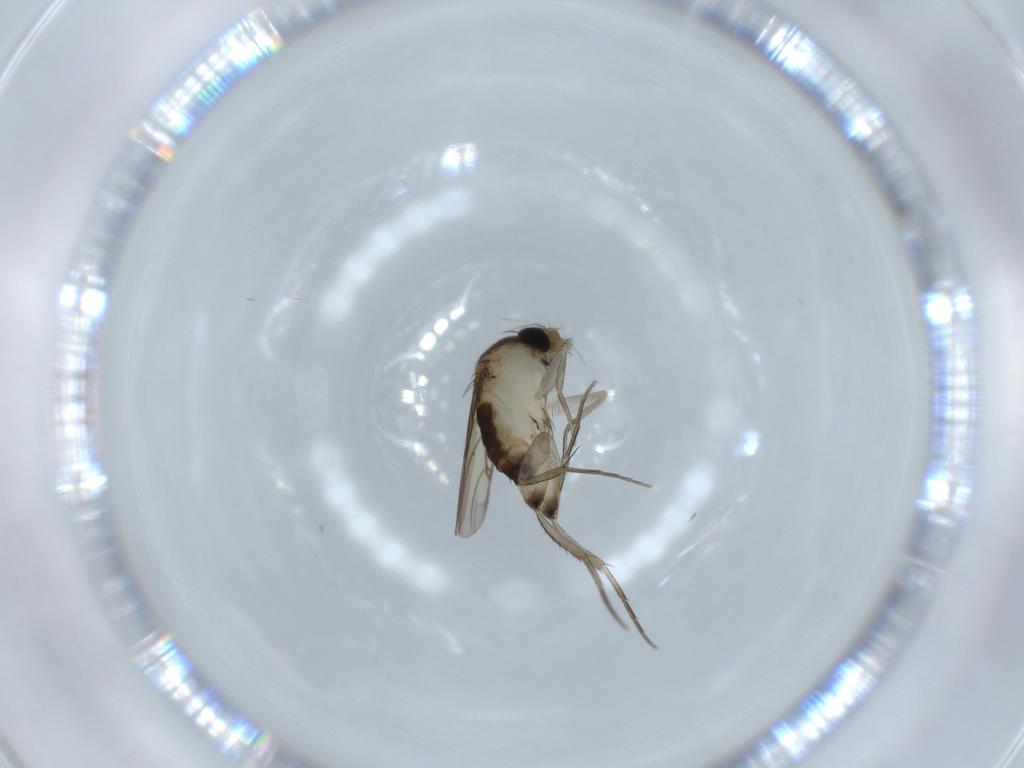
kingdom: Animalia
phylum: Arthropoda
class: Insecta
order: Diptera
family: Phoridae
